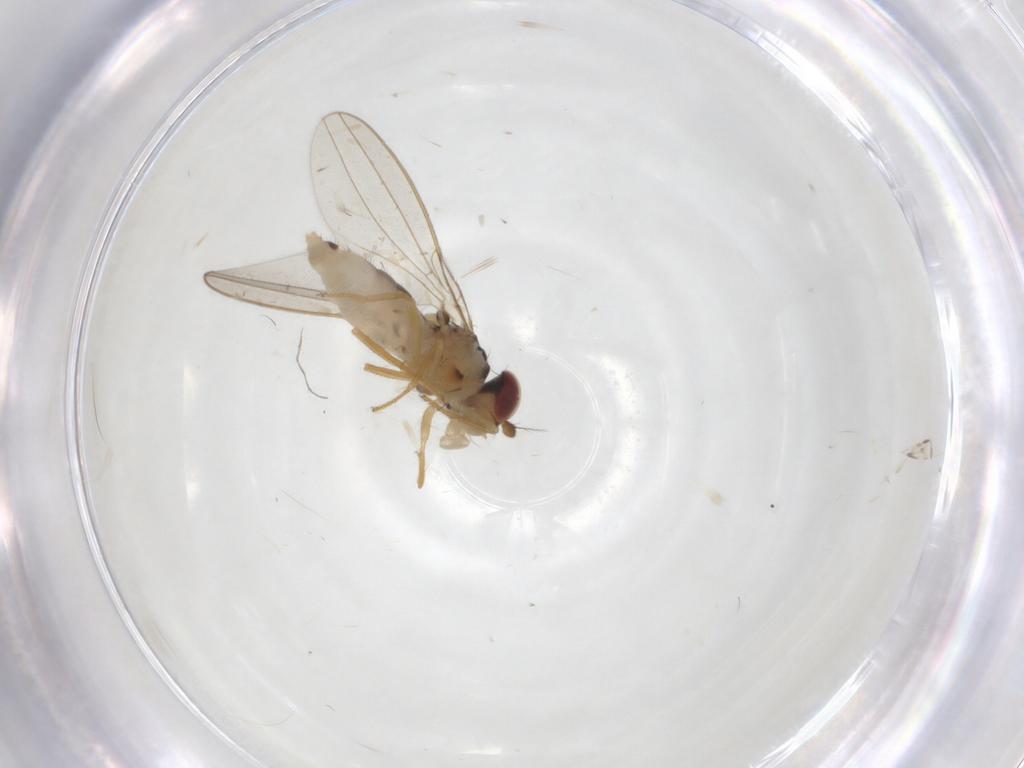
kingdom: Animalia
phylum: Arthropoda
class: Insecta
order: Diptera
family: Asteiidae
